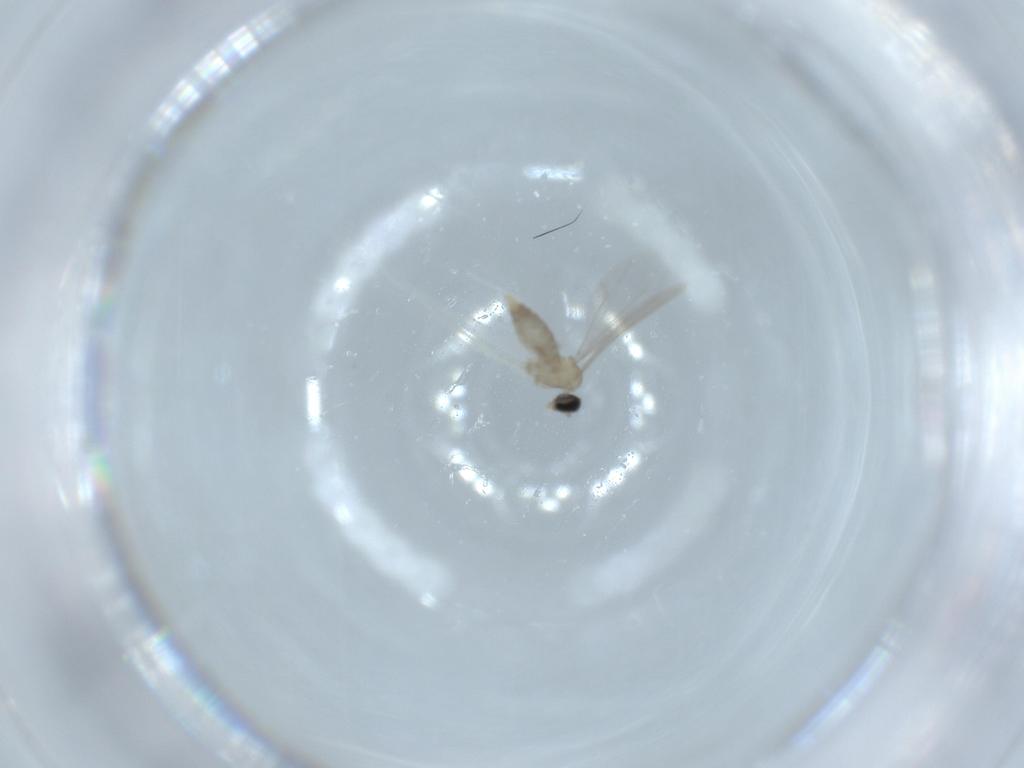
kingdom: Animalia
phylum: Arthropoda
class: Insecta
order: Diptera
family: Cecidomyiidae
